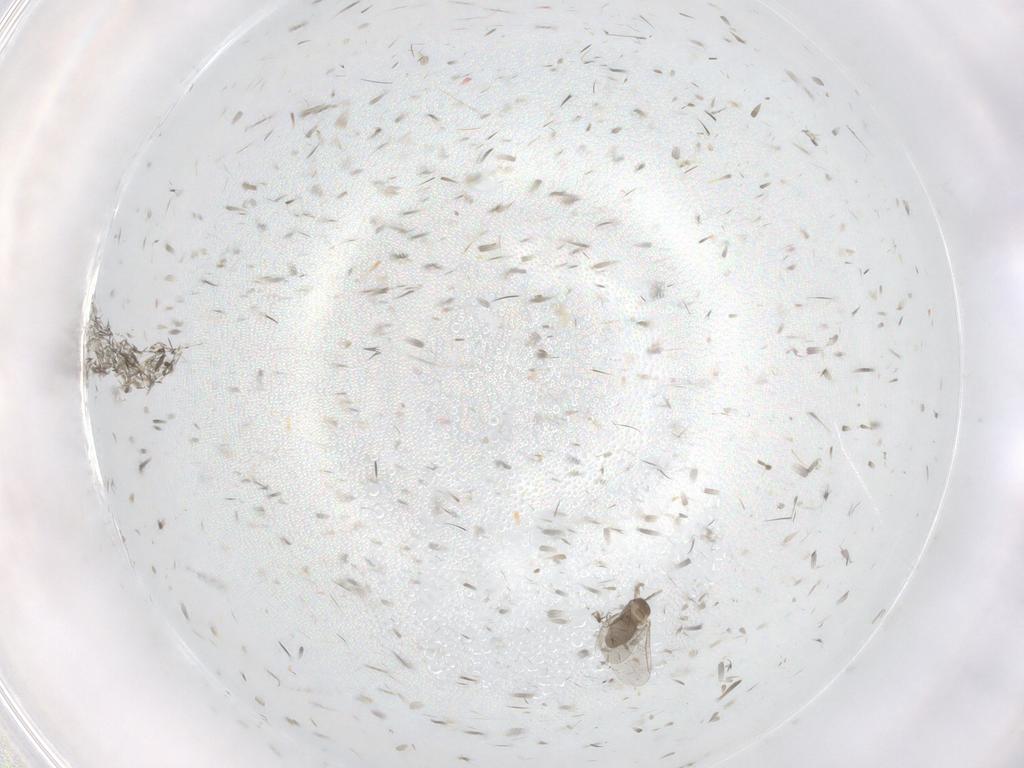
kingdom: Animalia
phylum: Arthropoda
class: Insecta
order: Diptera
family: Cecidomyiidae
